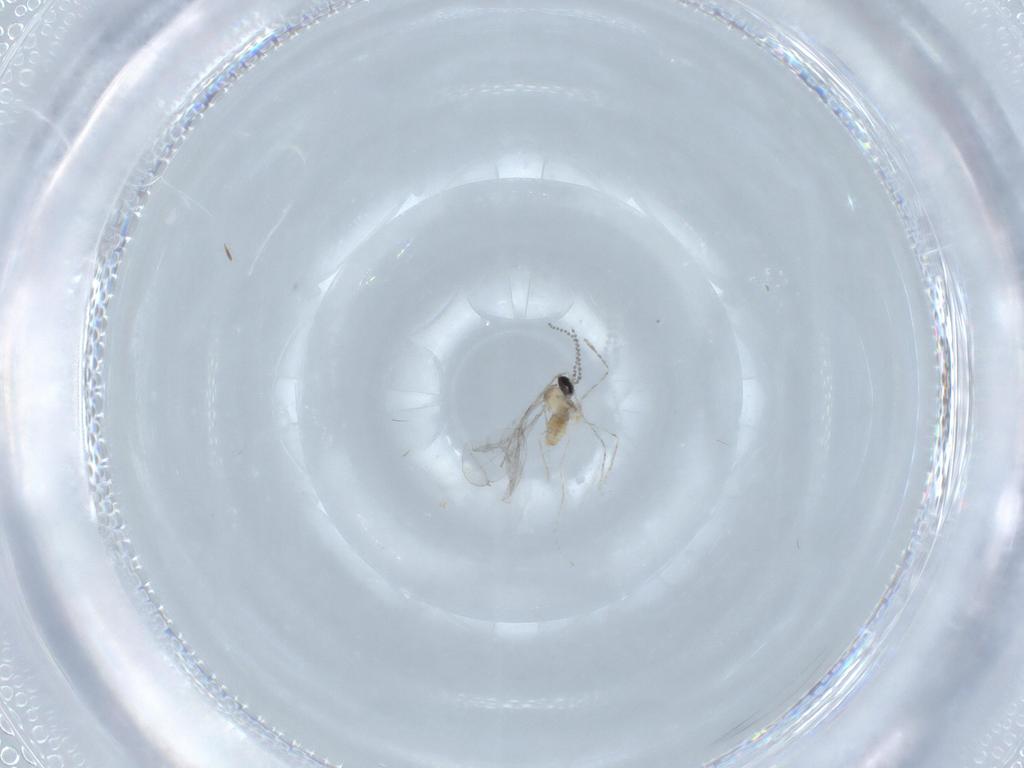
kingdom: Animalia
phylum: Arthropoda
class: Insecta
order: Diptera
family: Cecidomyiidae
